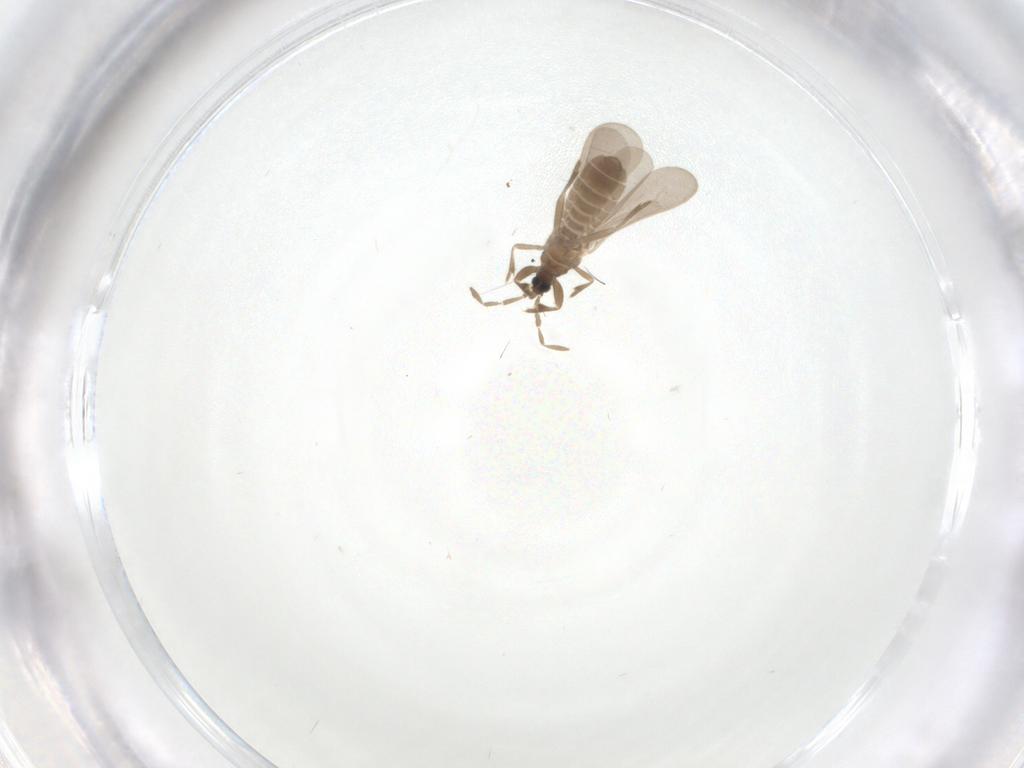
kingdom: Animalia
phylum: Arthropoda
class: Insecta
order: Hemiptera
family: Enicocephalidae
